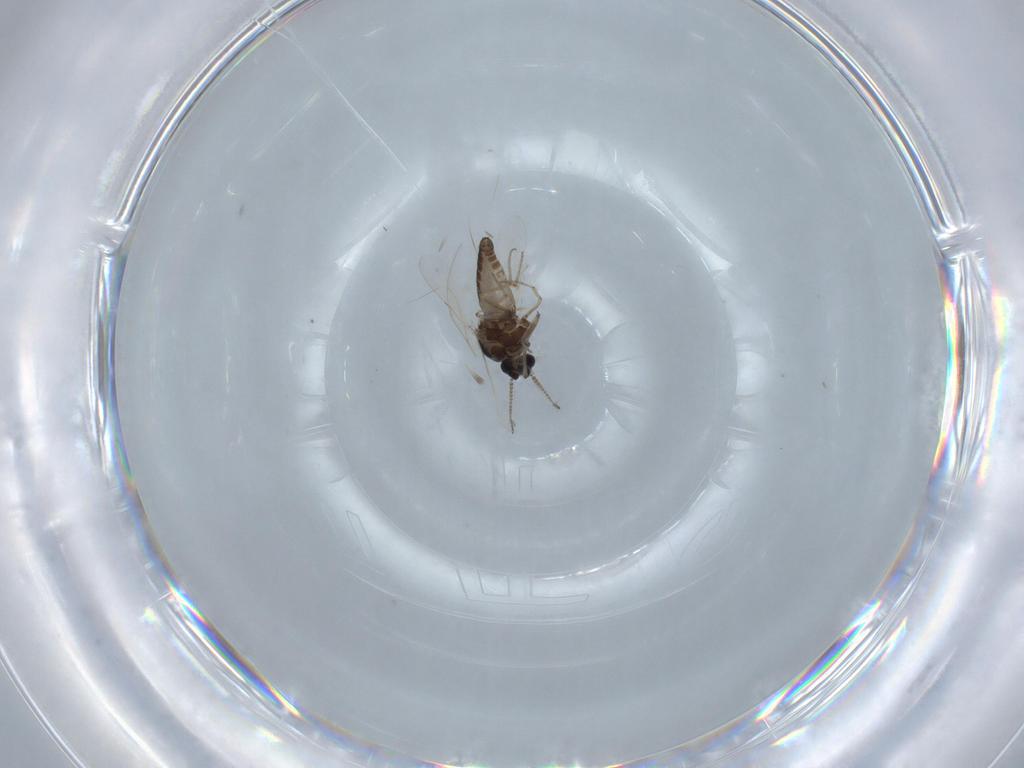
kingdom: Animalia
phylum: Arthropoda
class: Insecta
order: Diptera
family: Ceratopogonidae
